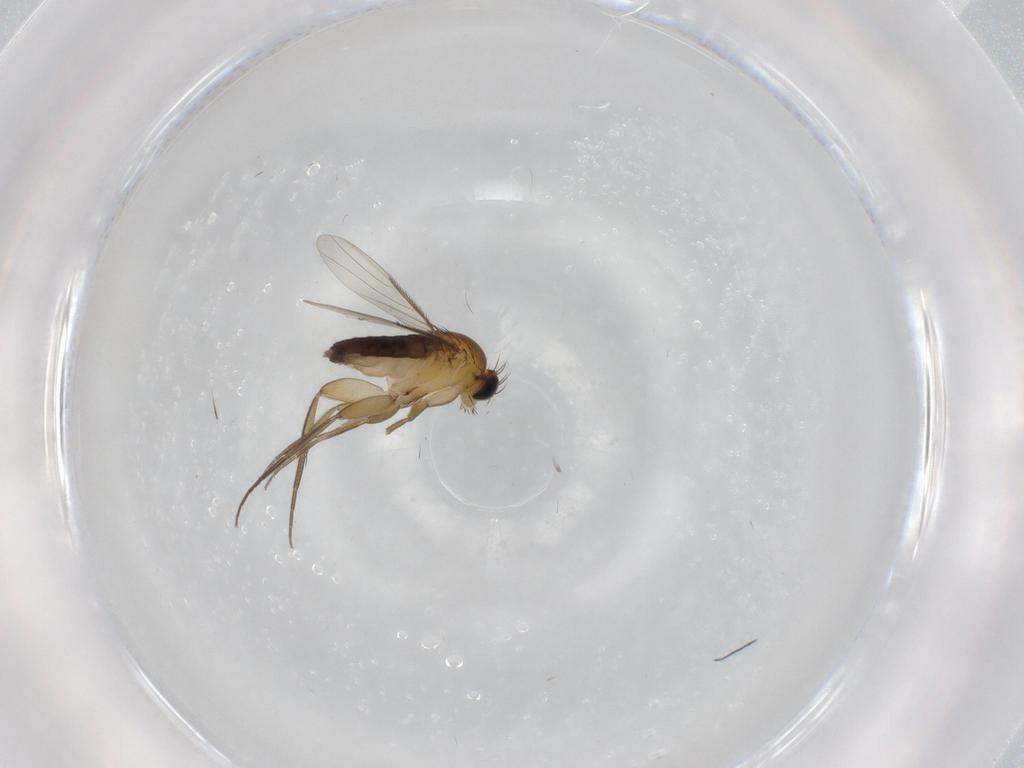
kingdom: Animalia
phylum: Arthropoda
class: Insecta
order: Diptera
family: Phoridae
